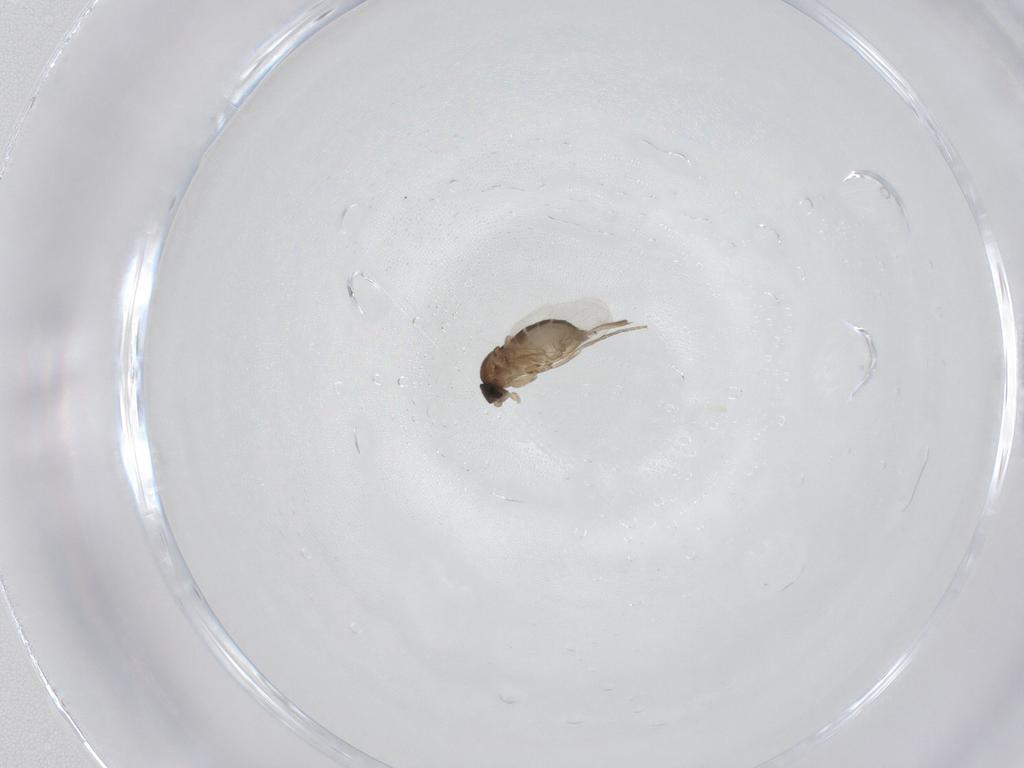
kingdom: Animalia
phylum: Arthropoda
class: Insecta
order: Diptera
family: Phoridae
